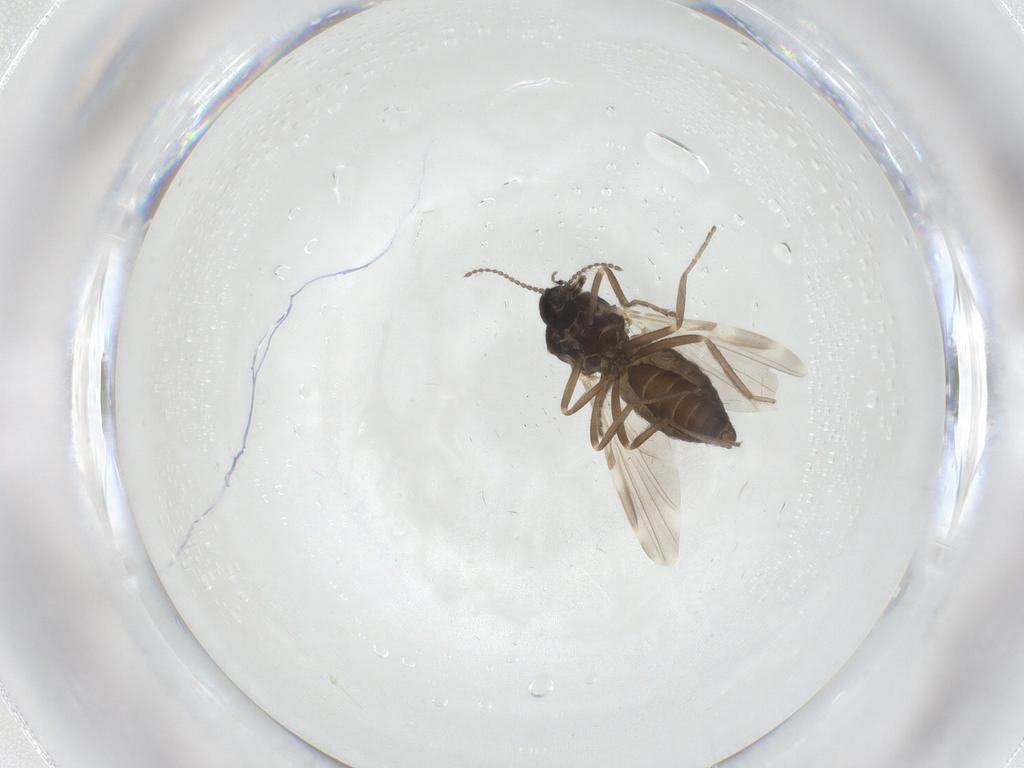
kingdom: Animalia
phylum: Arthropoda
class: Insecta
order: Diptera
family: Ceratopogonidae
